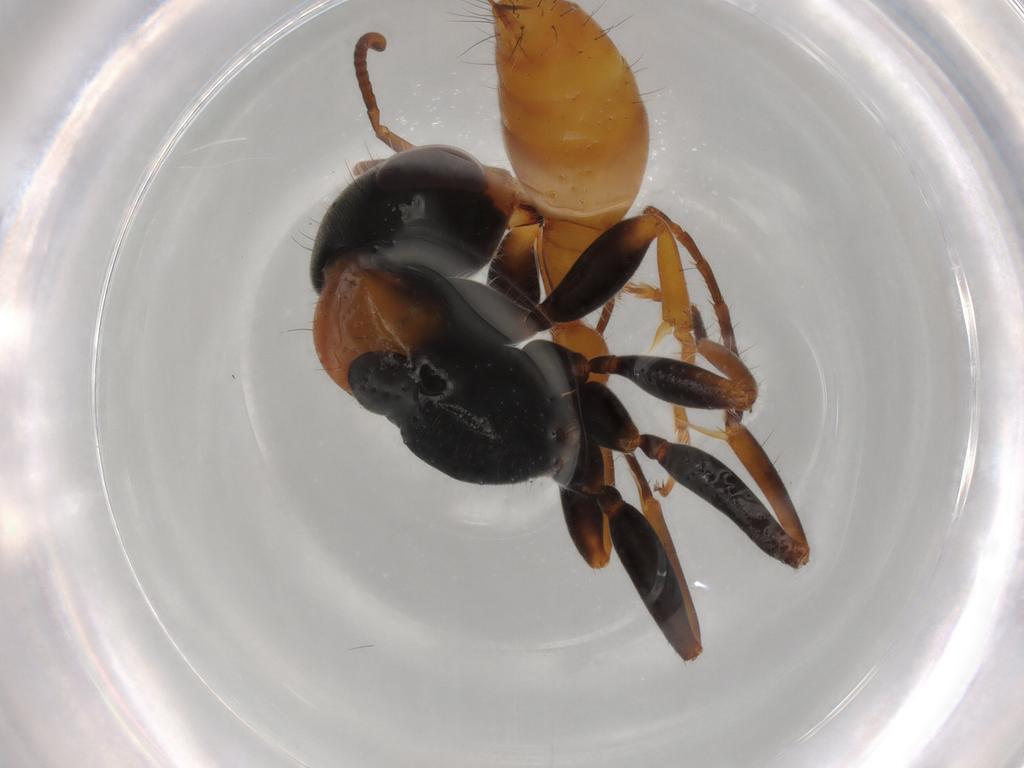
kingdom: Animalia
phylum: Arthropoda
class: Insecta
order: Hymenoptera
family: Formicidae
